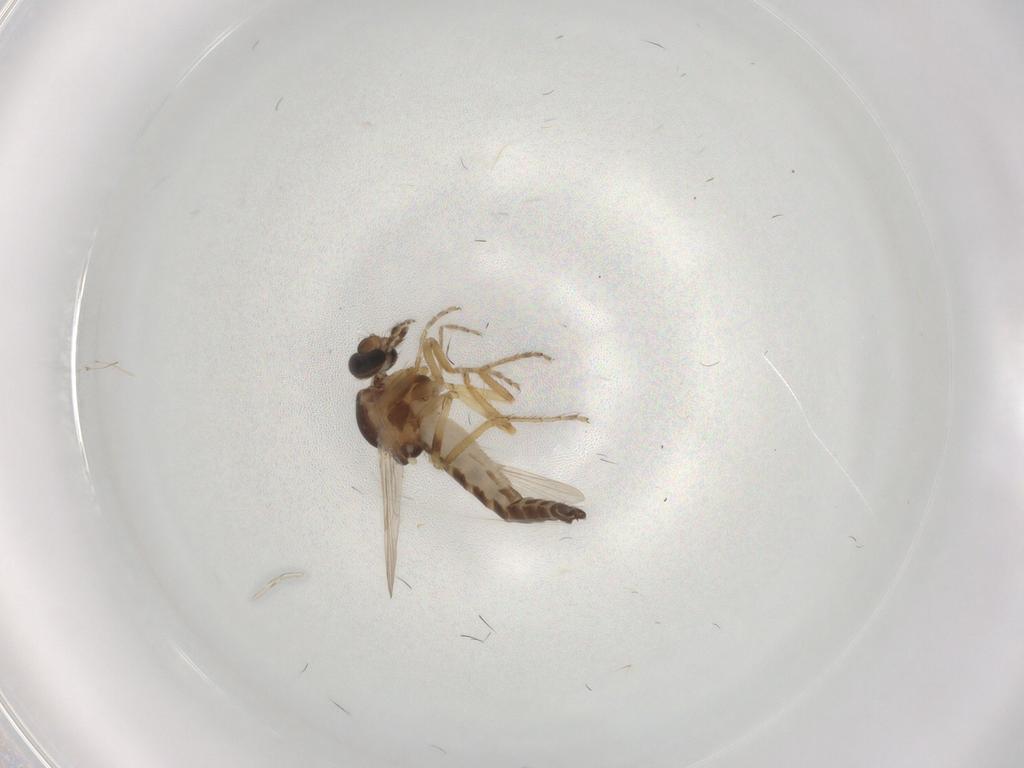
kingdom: Animalia
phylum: Arthropoda
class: Insecta
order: Diptera
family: Ceratopogonidae
